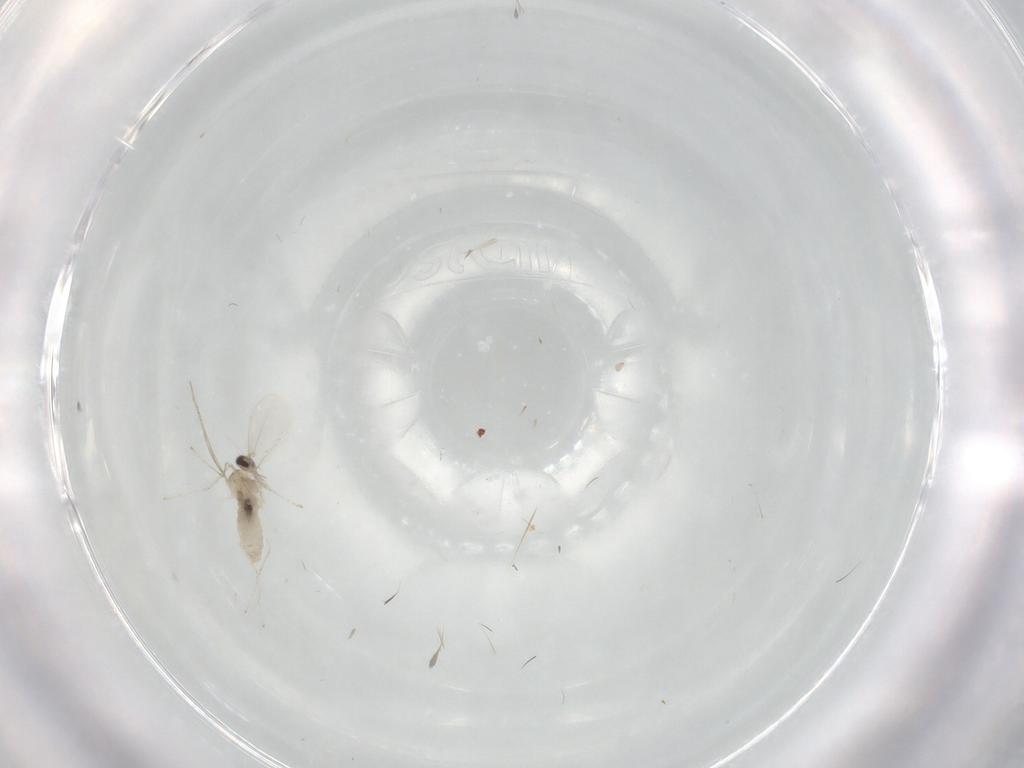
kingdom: Animalia
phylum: Arthropoda
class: Insecta
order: Diptera
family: Cecidomyiidae
